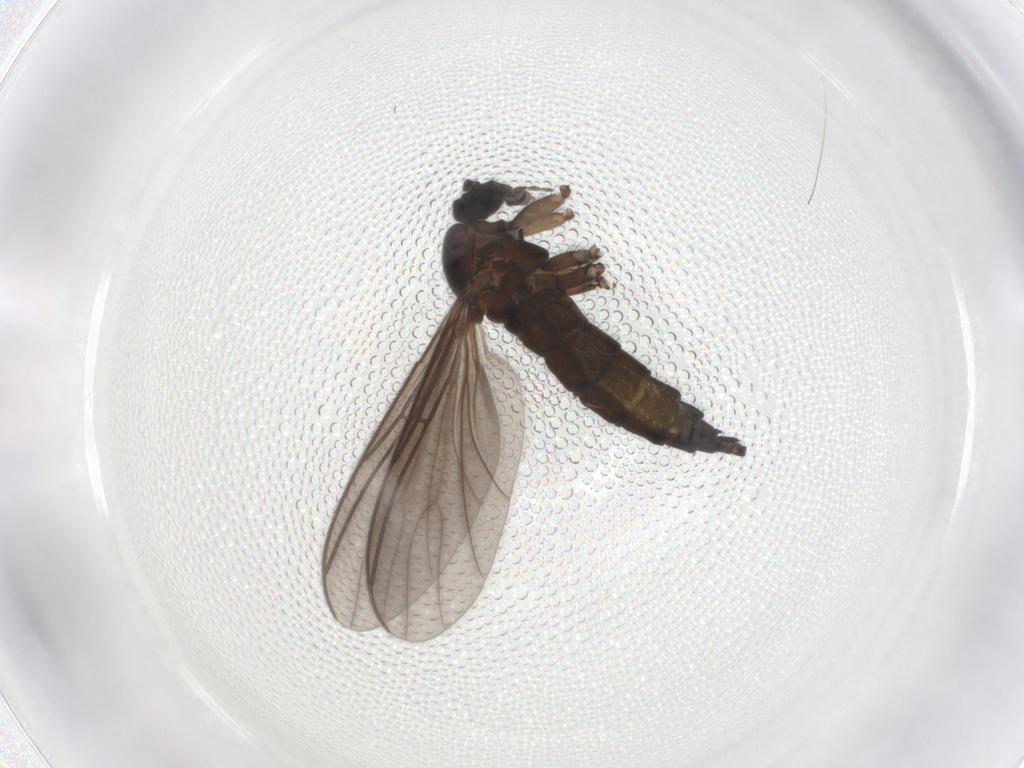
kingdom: Animalia
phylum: Arthropoda
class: Insecta
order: Diptera
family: Sciaridae
